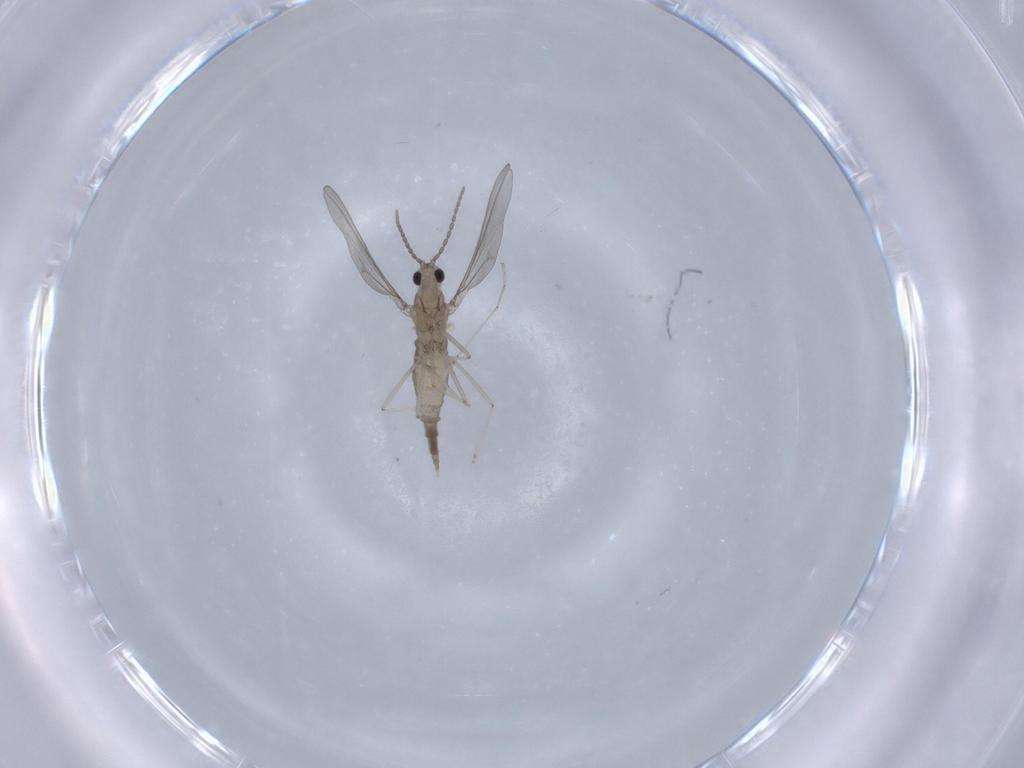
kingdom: Animalia
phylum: Arthropoda
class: Insecta
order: Diptera
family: Cecidomyiidae
